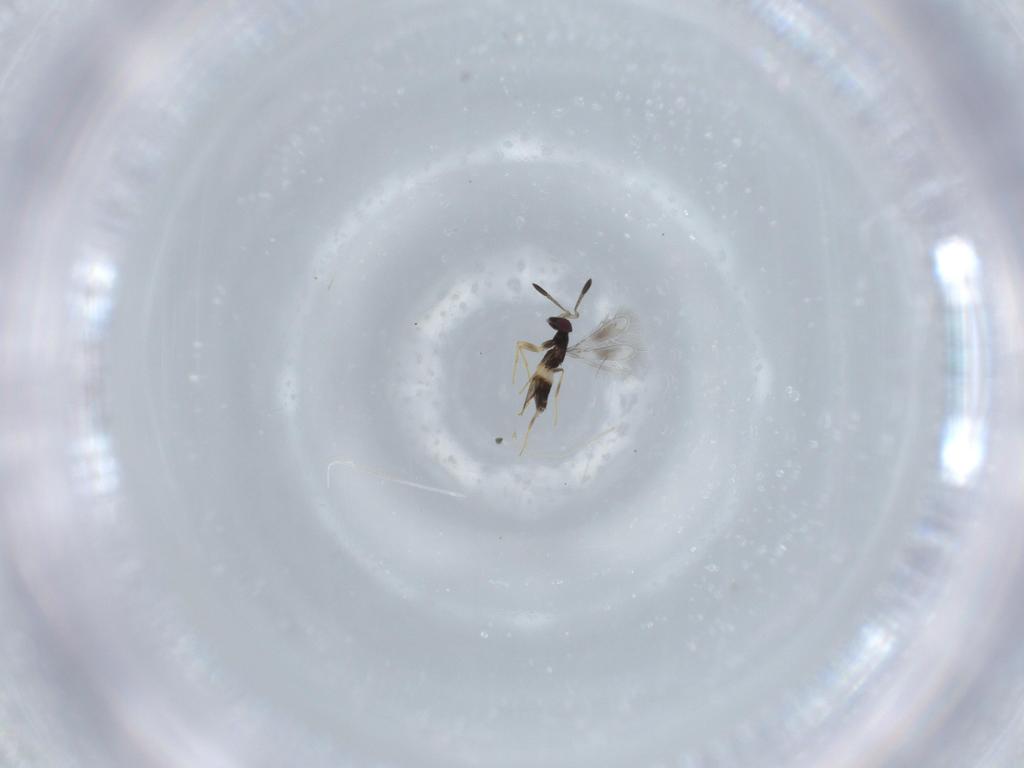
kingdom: Animalia
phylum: Arthropoda
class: Insecta
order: Hymenoptera
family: Mymaridae
